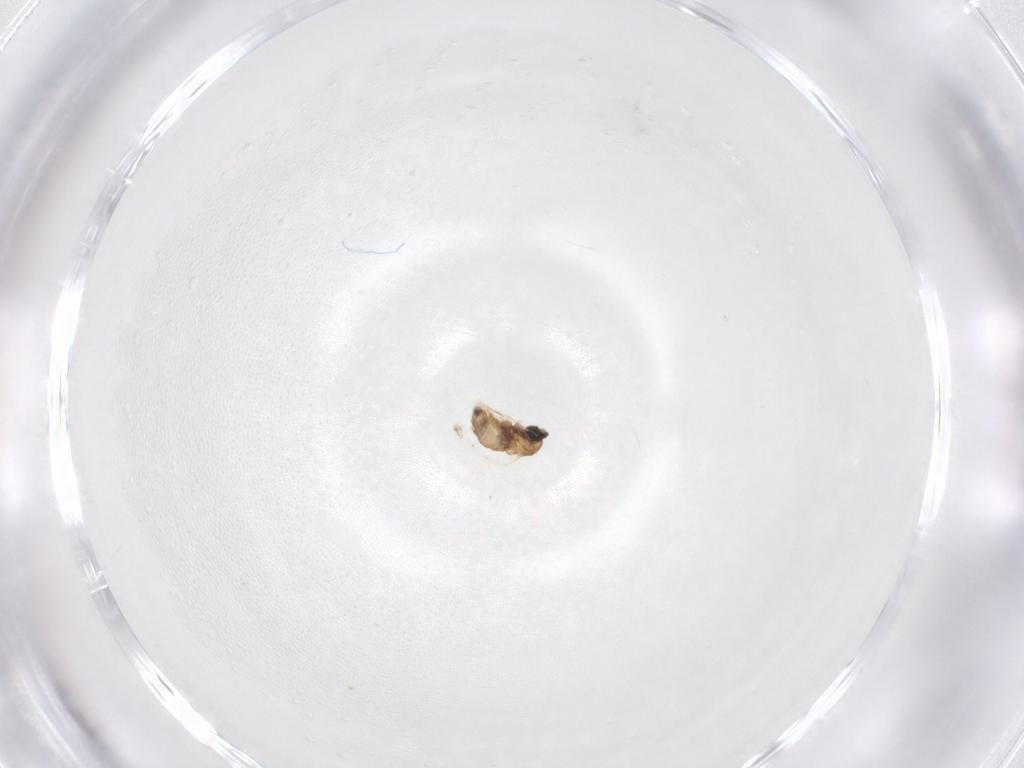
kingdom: Animalia
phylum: Arthropoda
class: Insecta
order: Diptera
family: Cecidomyiidae
